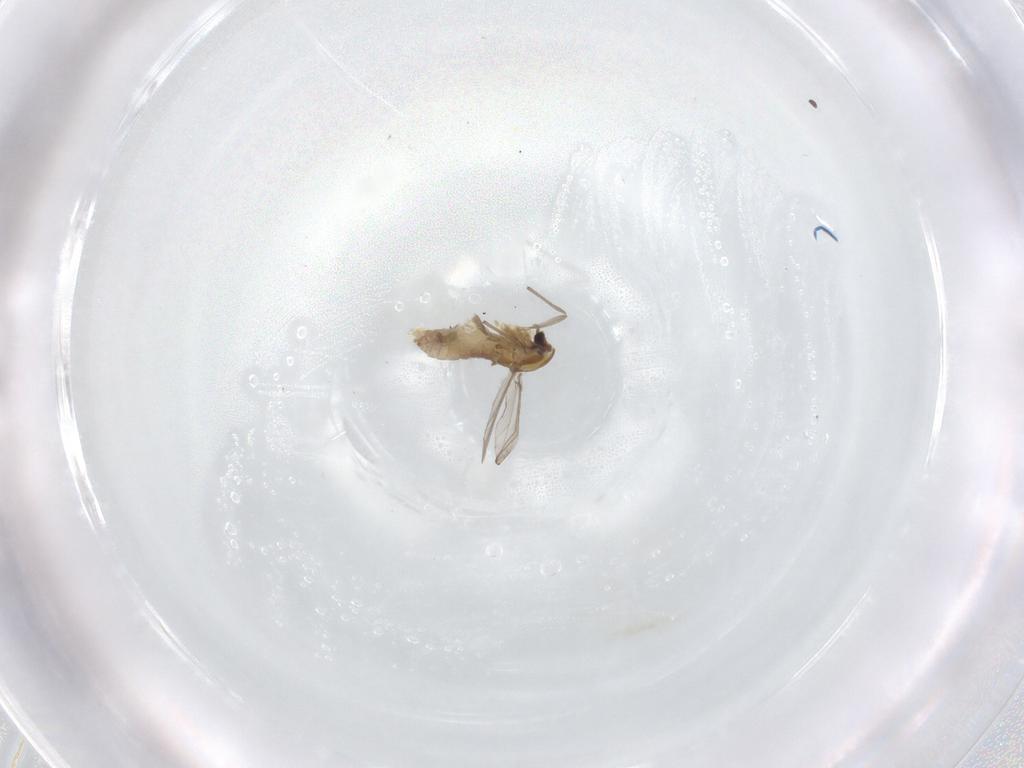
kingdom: Animalia
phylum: Arthropoda
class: Insecta
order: Diptera
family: Chironomidae
